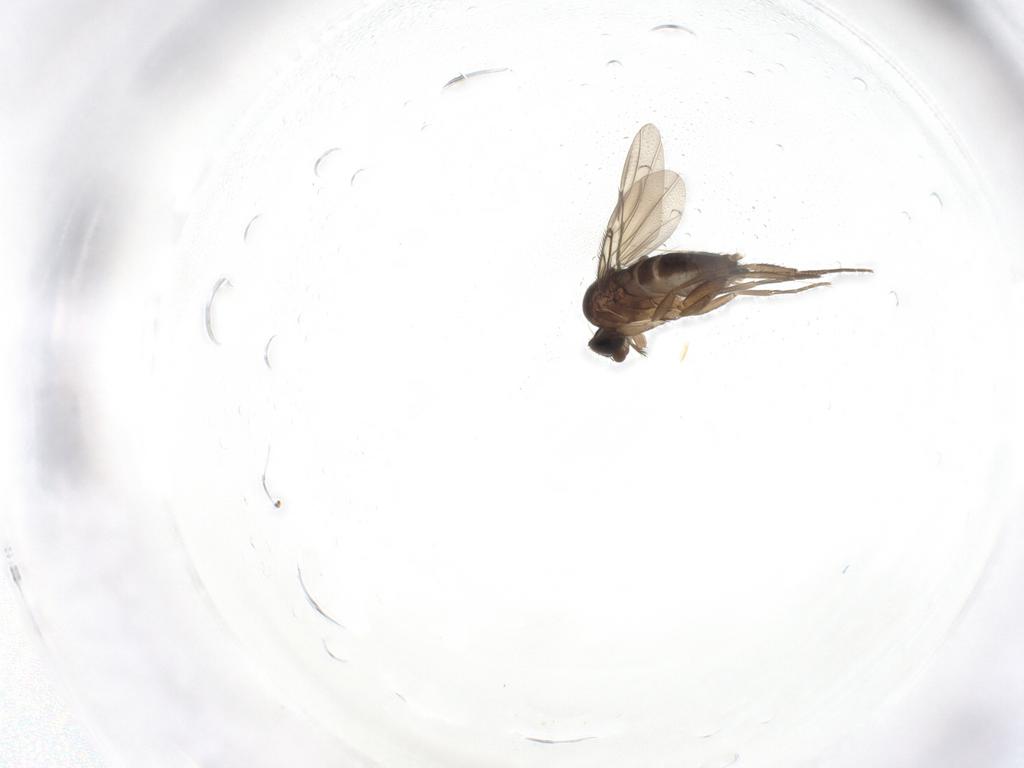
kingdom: Animalia
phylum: Arthropoda
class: Insecta
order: Diptera
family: Phoridae
